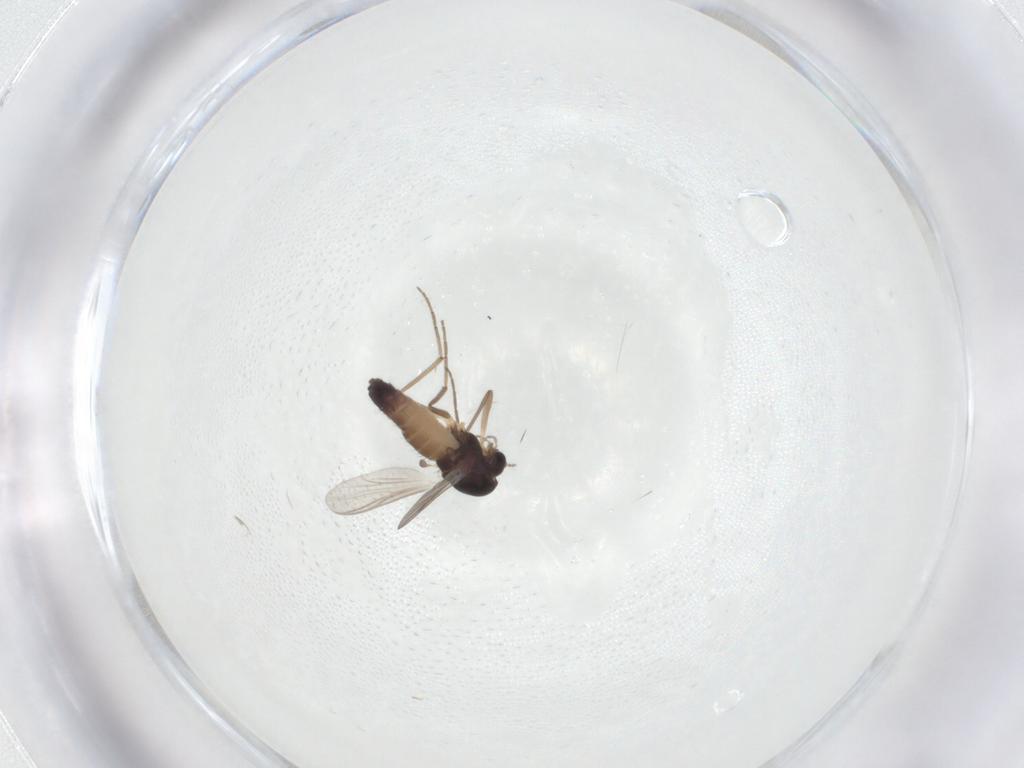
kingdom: Animalia
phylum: Arthropoda
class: Insecta
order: Diptera
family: Chironomidae
